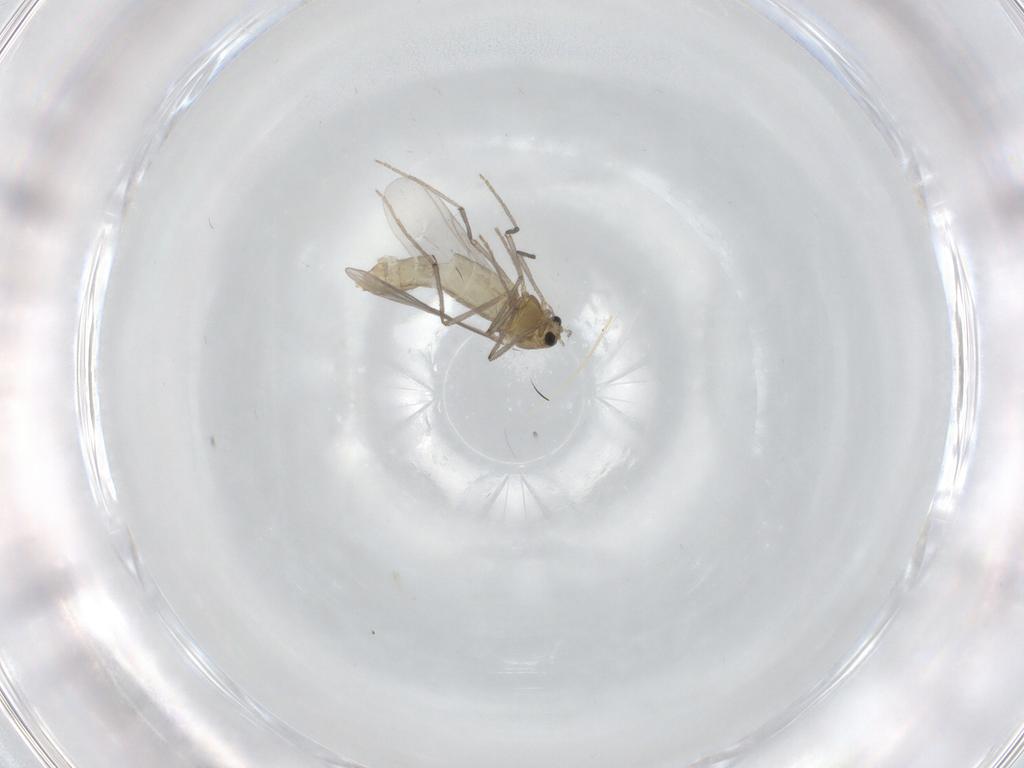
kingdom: Animalia
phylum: Arthropoda
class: Insecta
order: Diptera
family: Chironomidae
